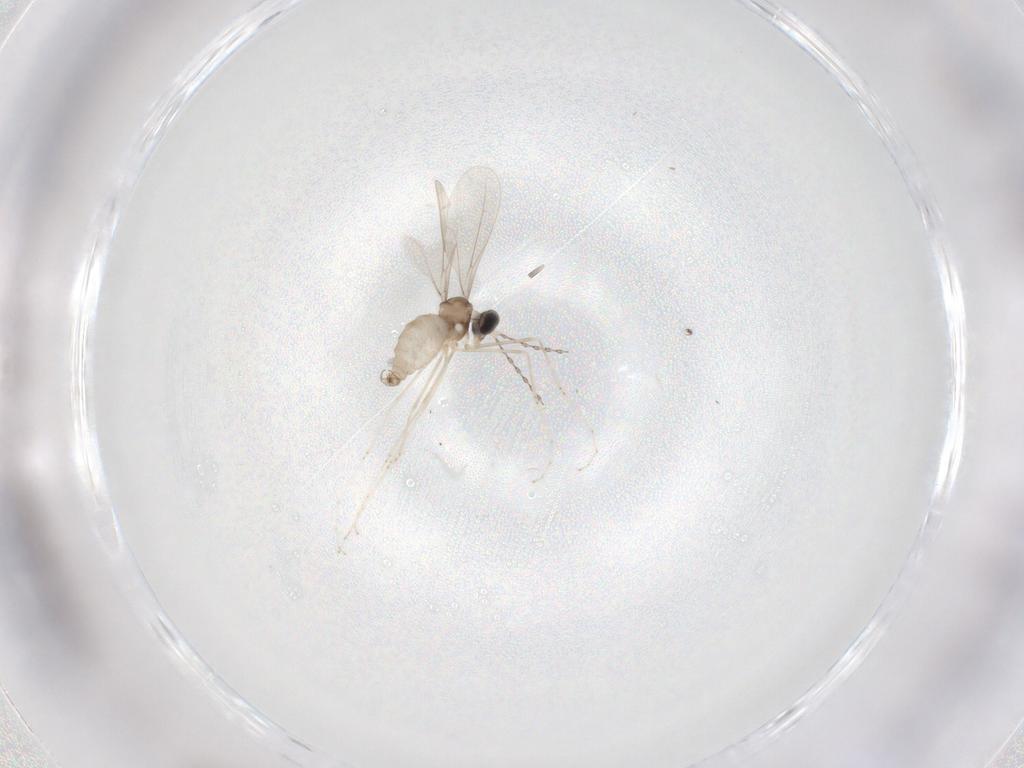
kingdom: Animalia
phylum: Arthropoda
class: Insecta
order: Diptera
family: Cecidomyiidae
